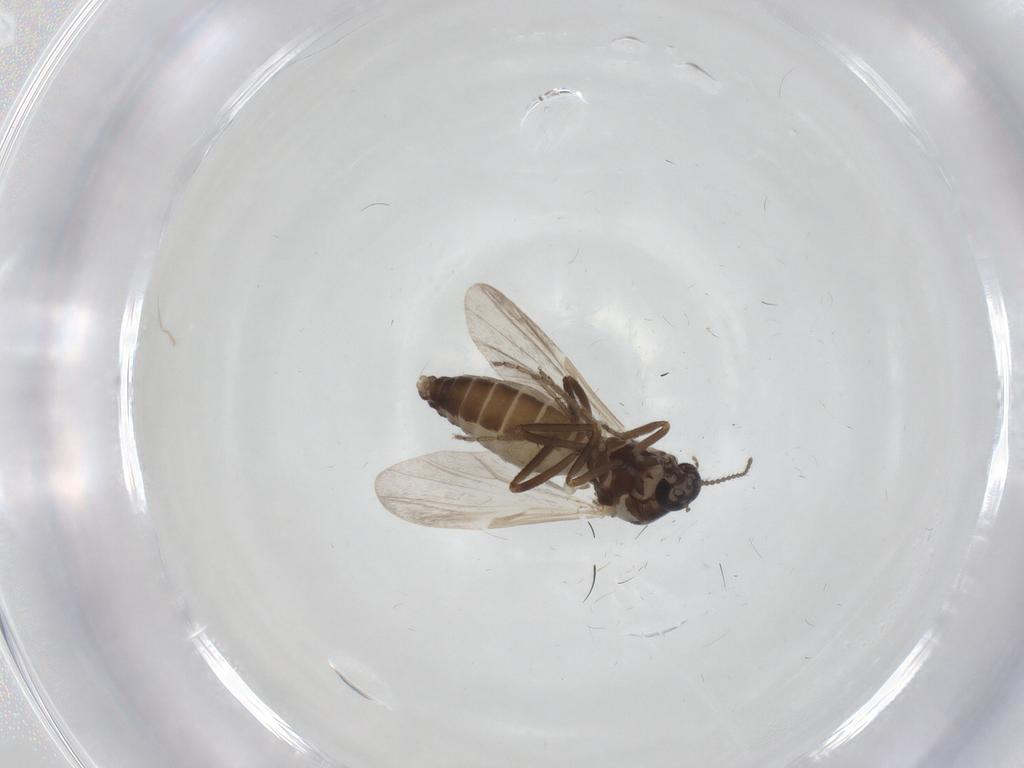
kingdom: Animalia
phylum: Arthropoda
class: Insecta
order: Diptera
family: Ceratopogonidae
